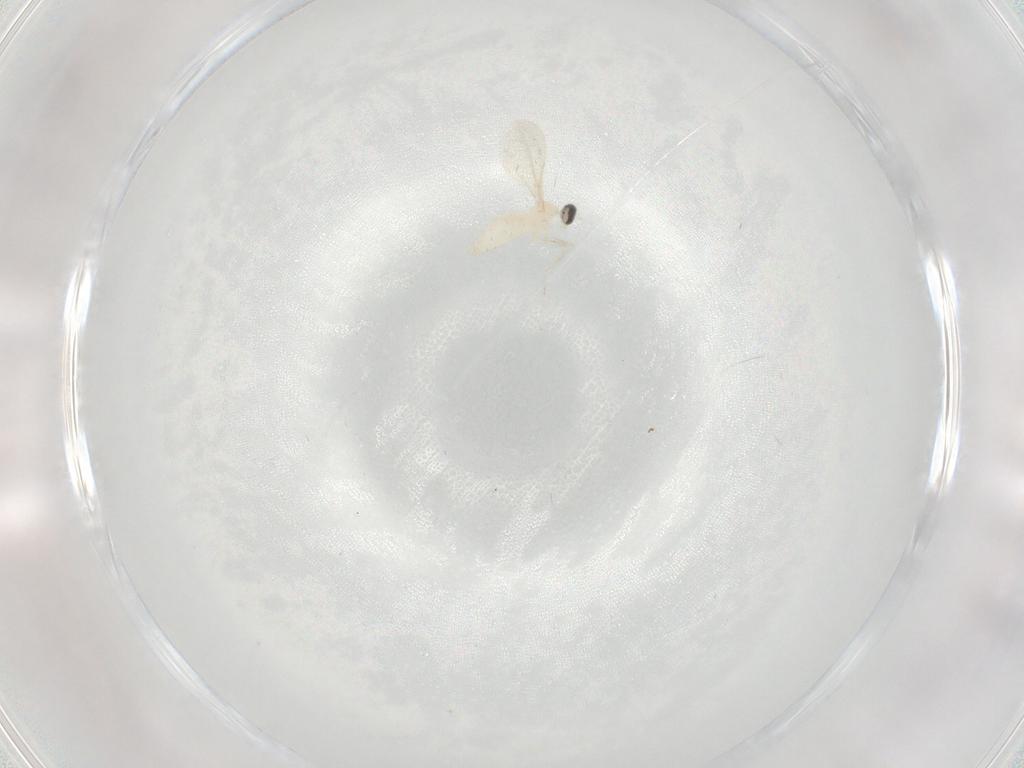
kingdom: Animalia
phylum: Arthropoda
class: Insecta
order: Diptera
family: Cecidomyiidae
